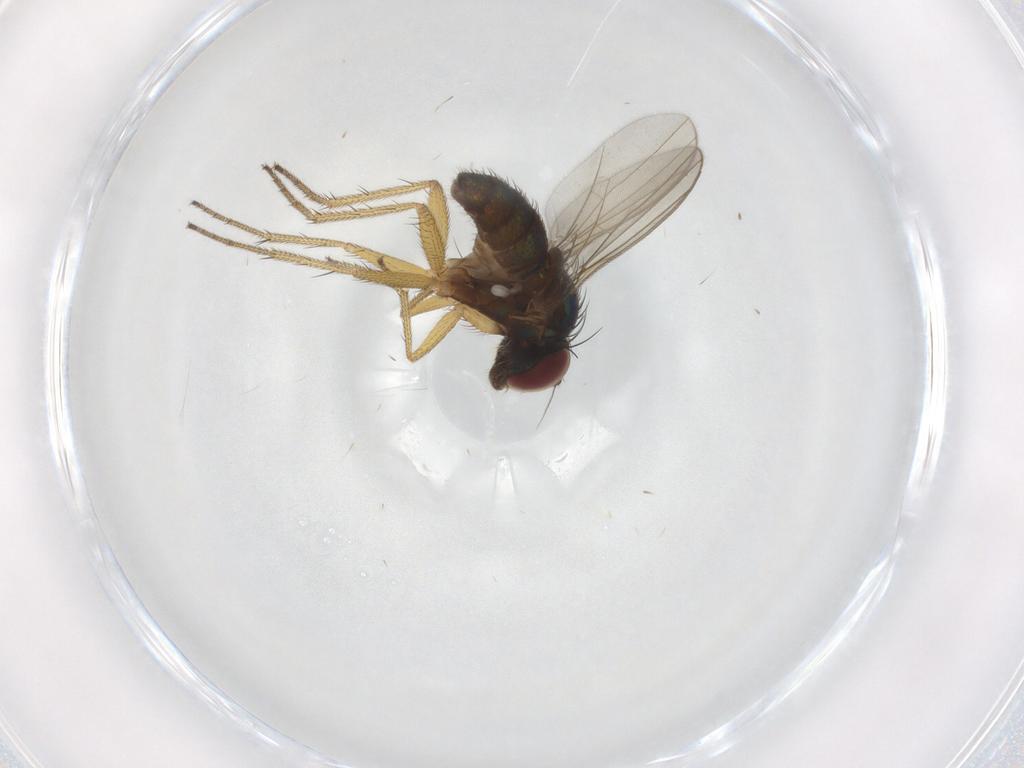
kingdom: Animalia
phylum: Arthropoda
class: Insecta
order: Diptera
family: Dolichopodidae
